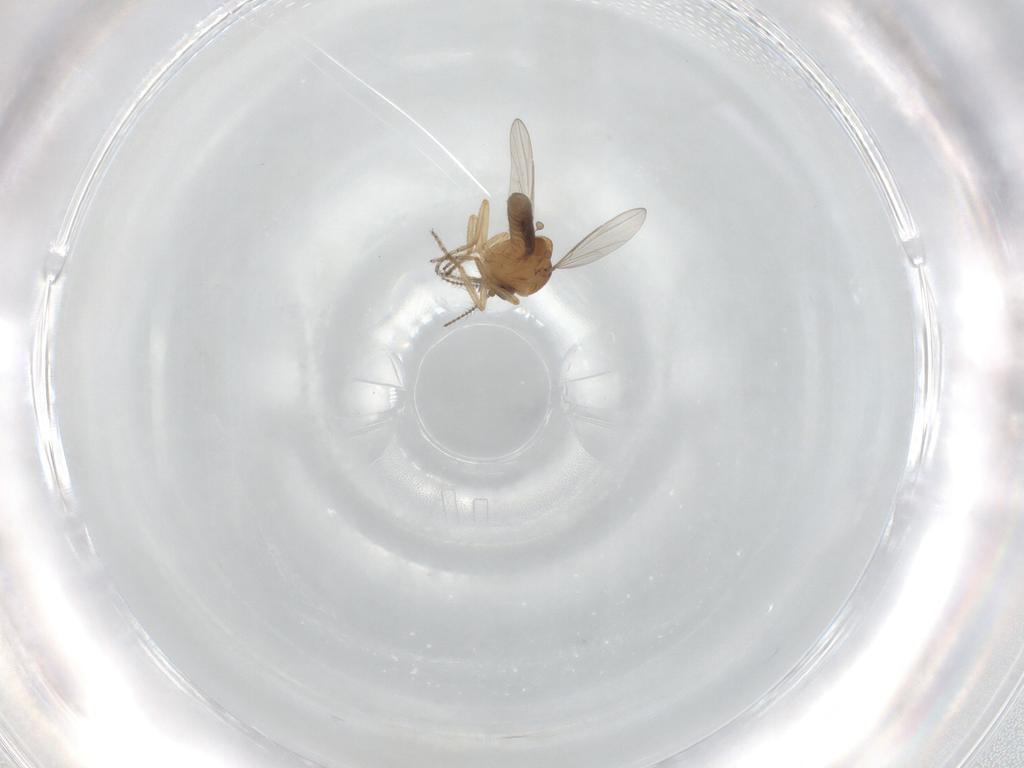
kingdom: Animalia
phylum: Arthropoda
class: Insecta
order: Diptera
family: Ceratopogonidae
